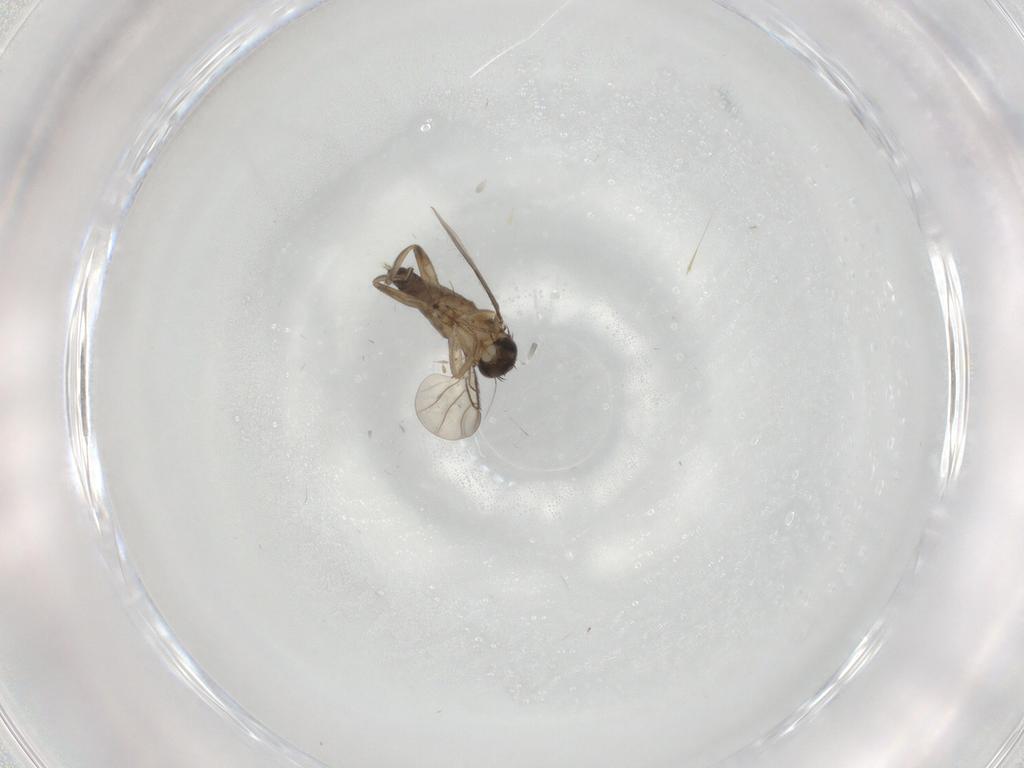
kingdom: Animalia
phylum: Arthropoda
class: Insecta
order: Diptera
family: Phoridae
